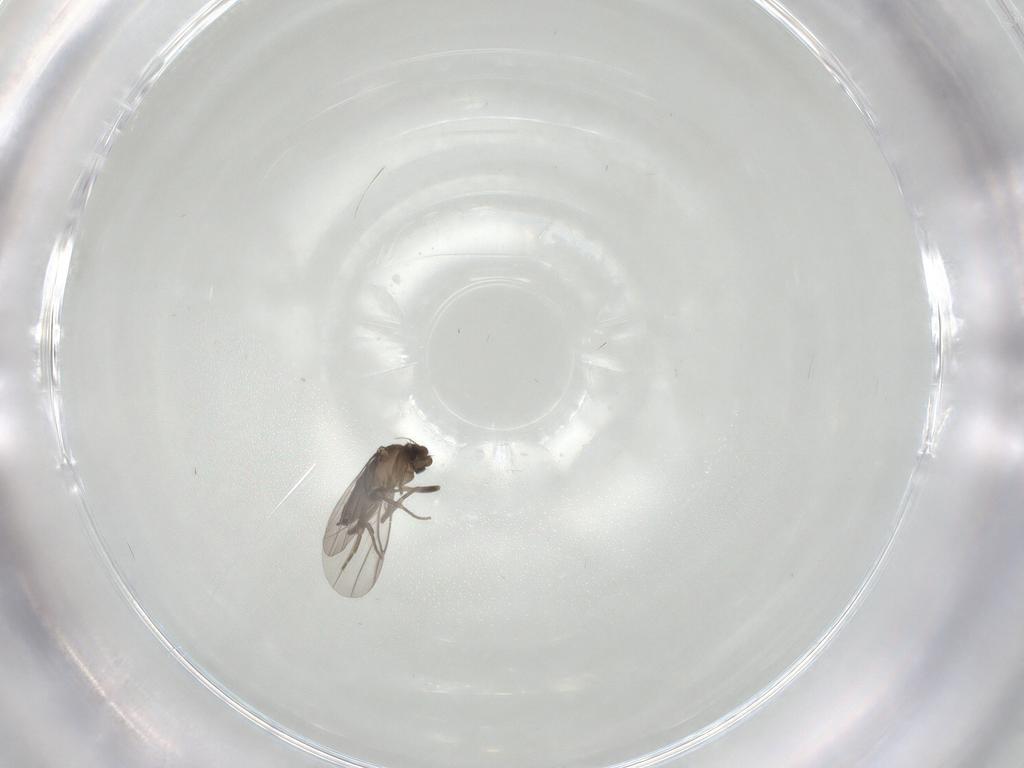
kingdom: Animalia
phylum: Arthropoda
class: Insecta
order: Diptera
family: Phoridae
